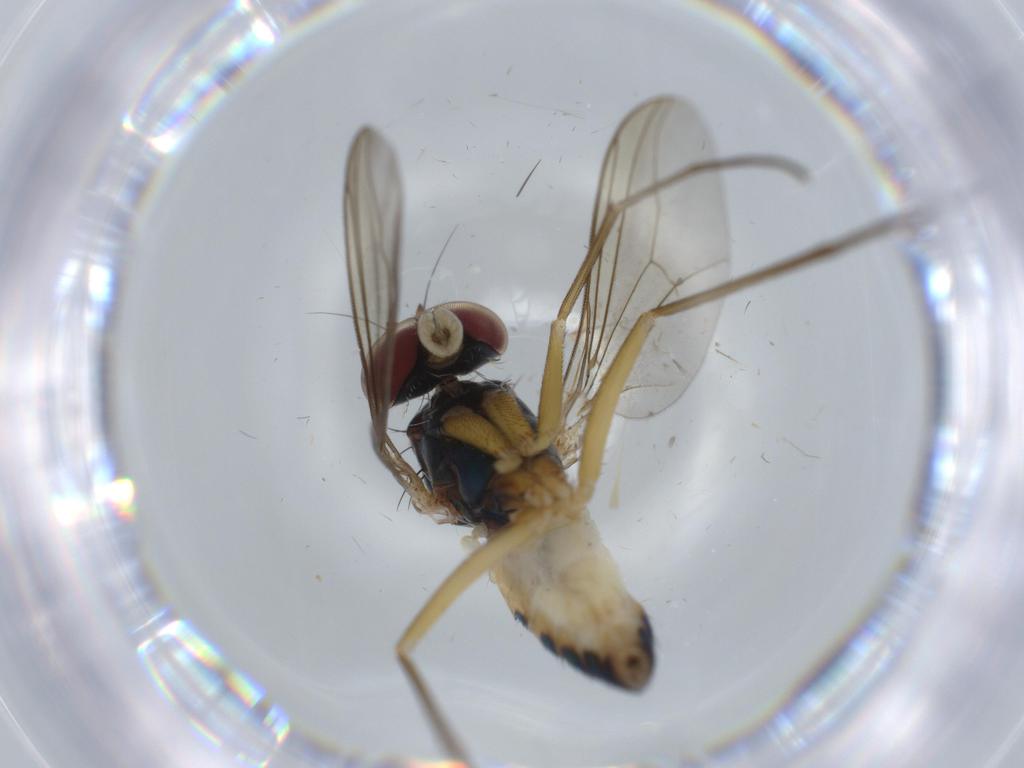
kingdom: Animalia
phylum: Arthropoda
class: Insecta
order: Diptera
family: Dolichopodidae
